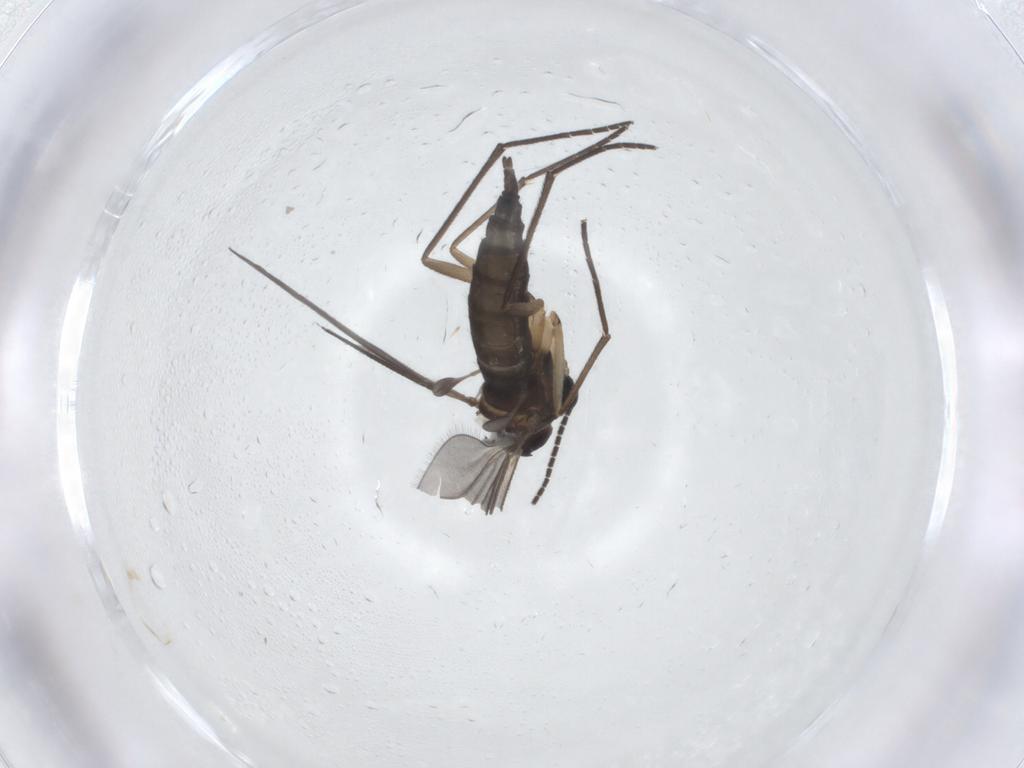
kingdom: Animalia
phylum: Arthropoda
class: Insecta
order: Diptera
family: Sciaridae
